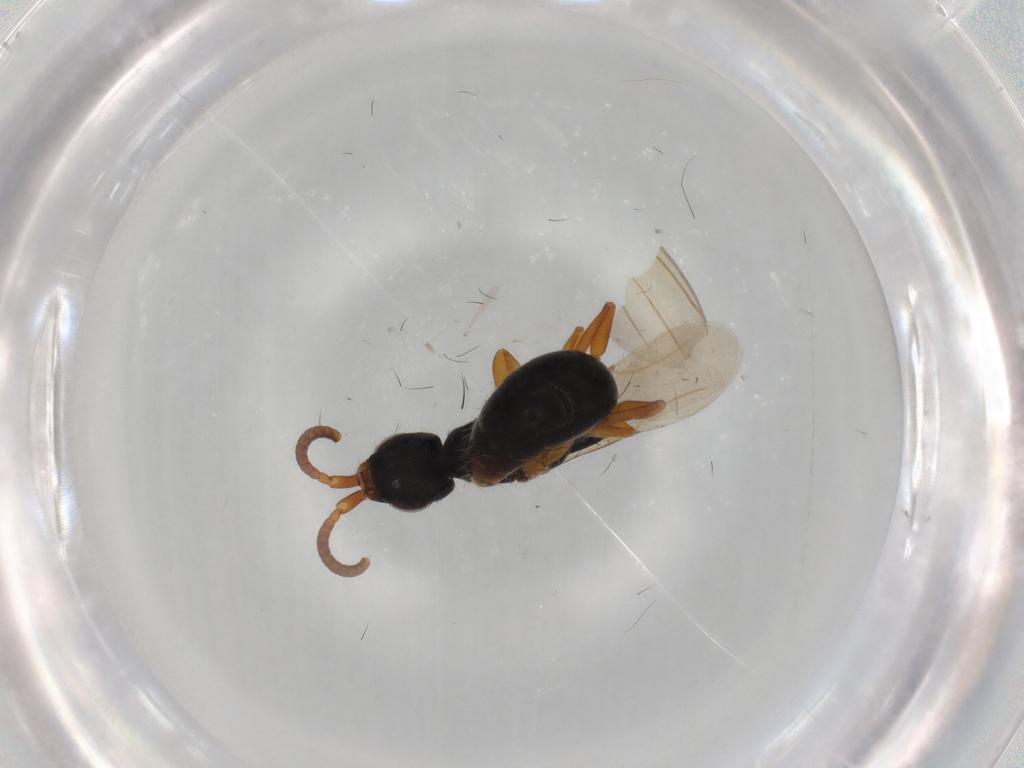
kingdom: Animalia
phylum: Arthropoda
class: Insecta
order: Hymenoptera
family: Bethylidae
